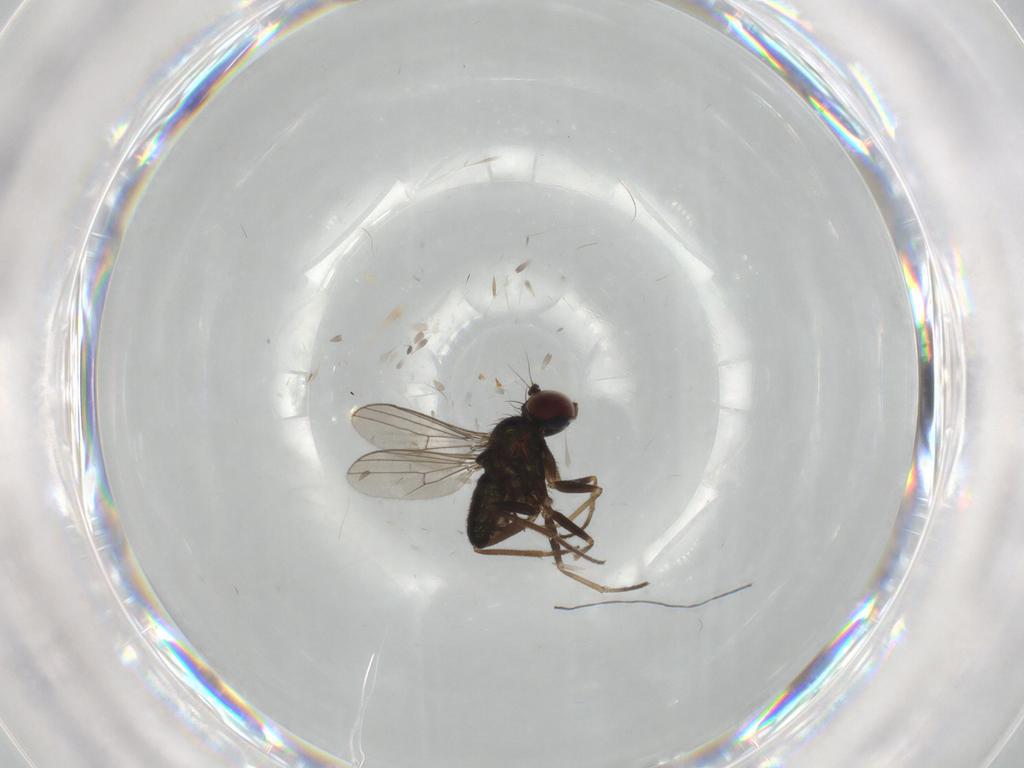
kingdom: Animalia
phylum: Arthropoda
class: Insecta
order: Diptera
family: Dolichopodidae
